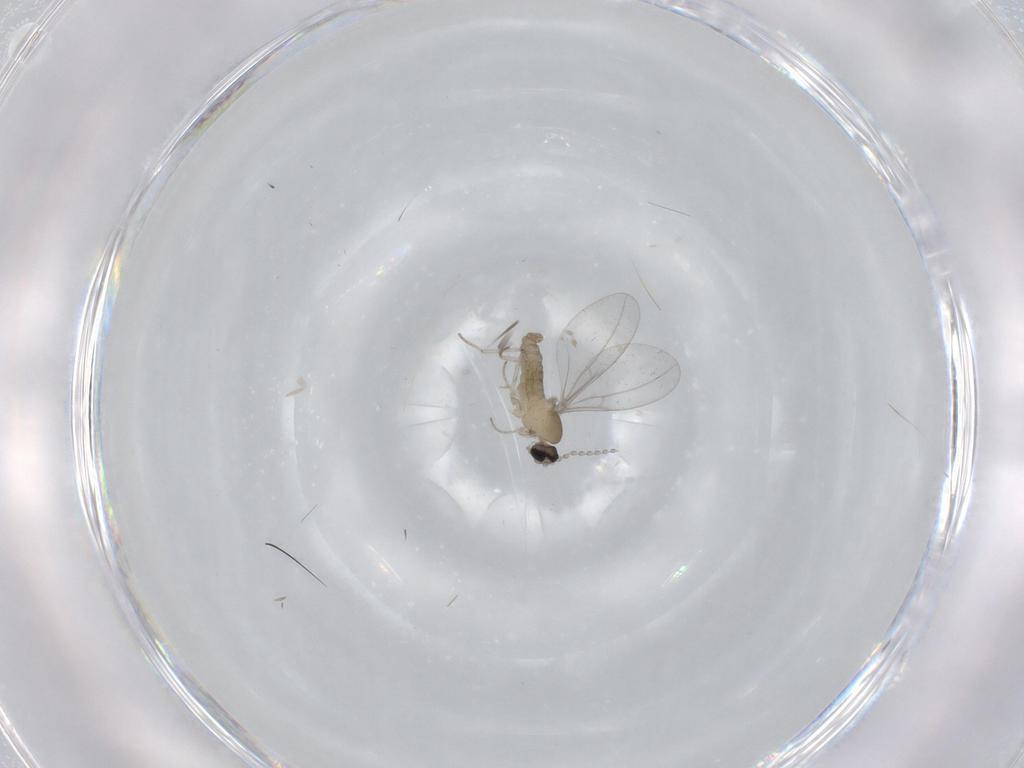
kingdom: Animalia
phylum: Arthropoda
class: Insecta
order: Diptera
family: Cecidomyiidae
